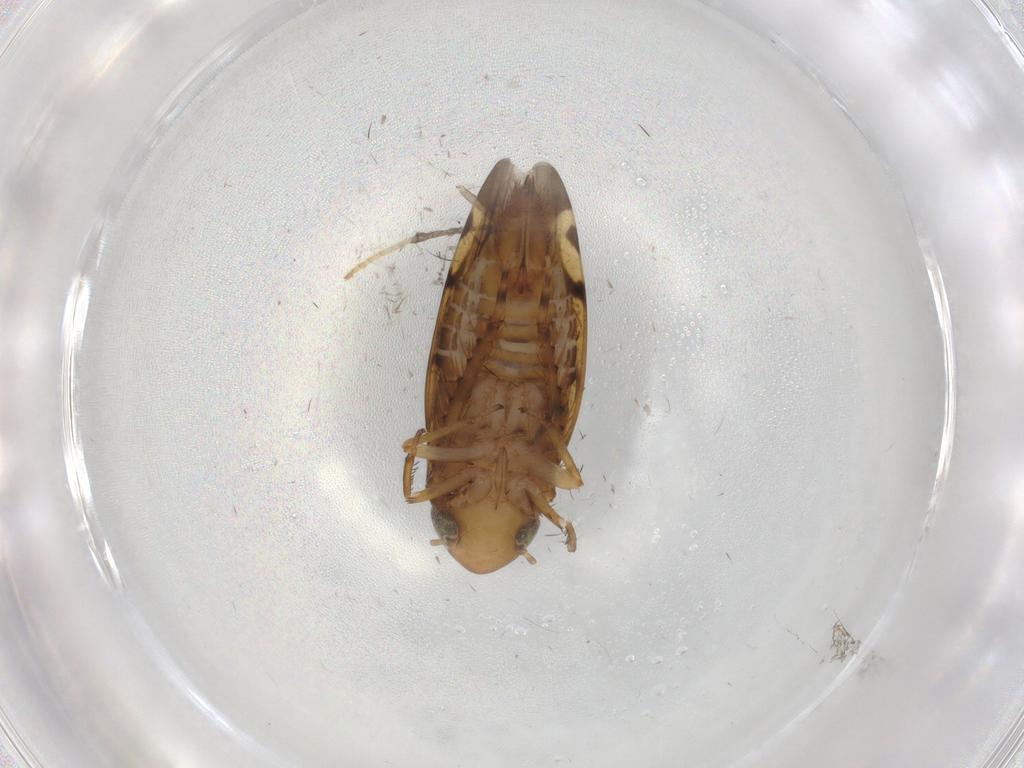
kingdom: Animalia
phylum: Arthropoda
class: Insecta
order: Hemiptera
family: Cicadellidae
